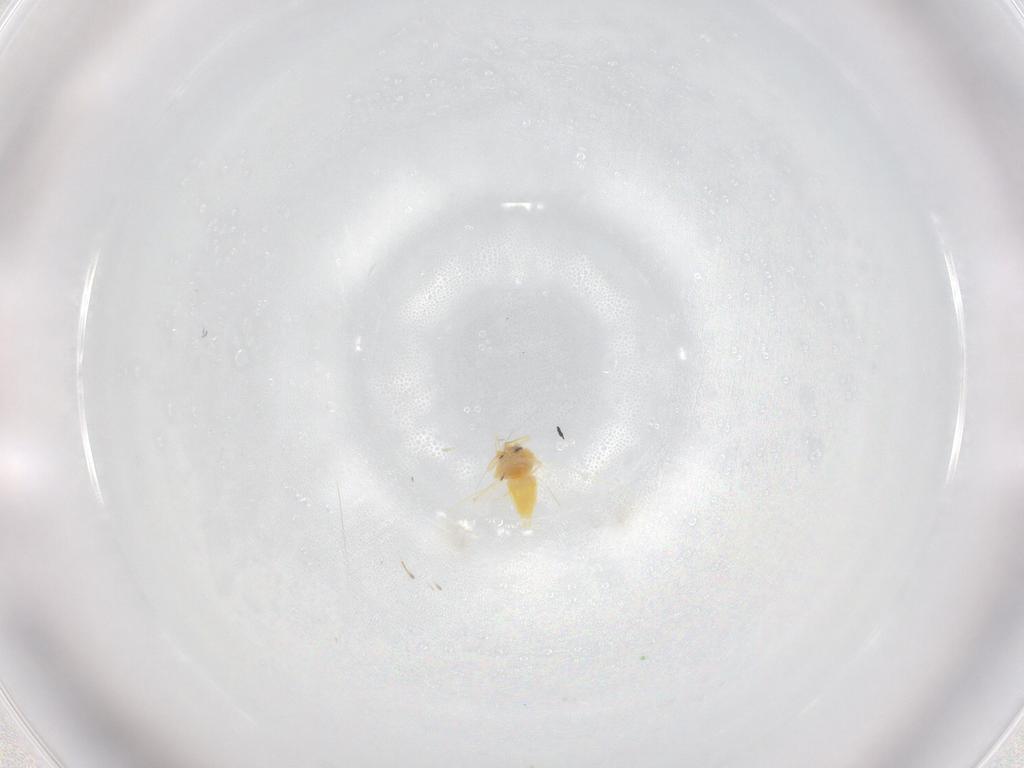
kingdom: Animalia
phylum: Arthropoda
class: Insecta
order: Hemiptera
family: Aleyrodidae
